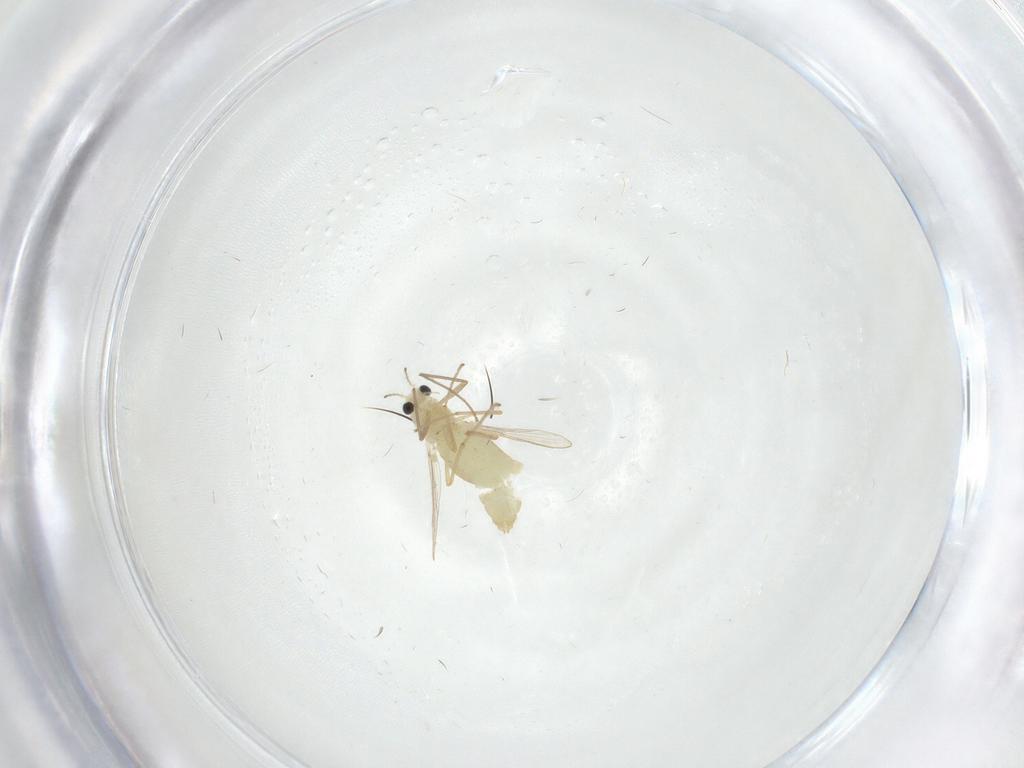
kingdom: Animalia
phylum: Arthropoda
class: Insecta
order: Diptera
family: Chironomidae
